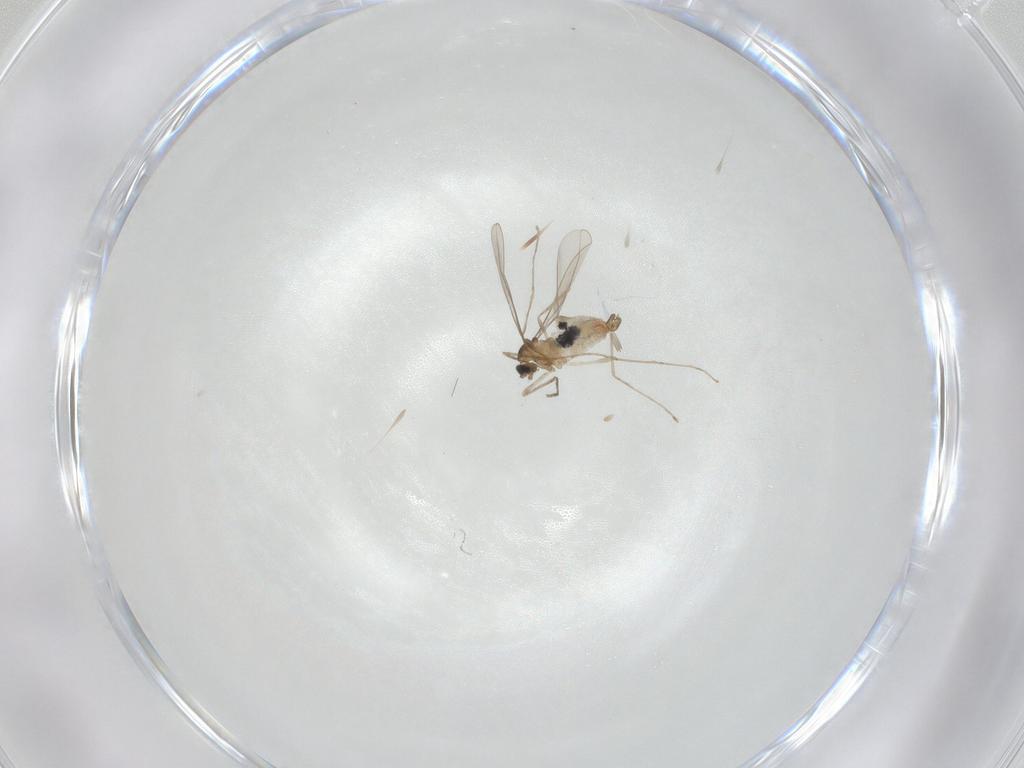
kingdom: Animalia
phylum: Arthropoda
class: Insecta
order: Diptera
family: Cecidomyiidae
